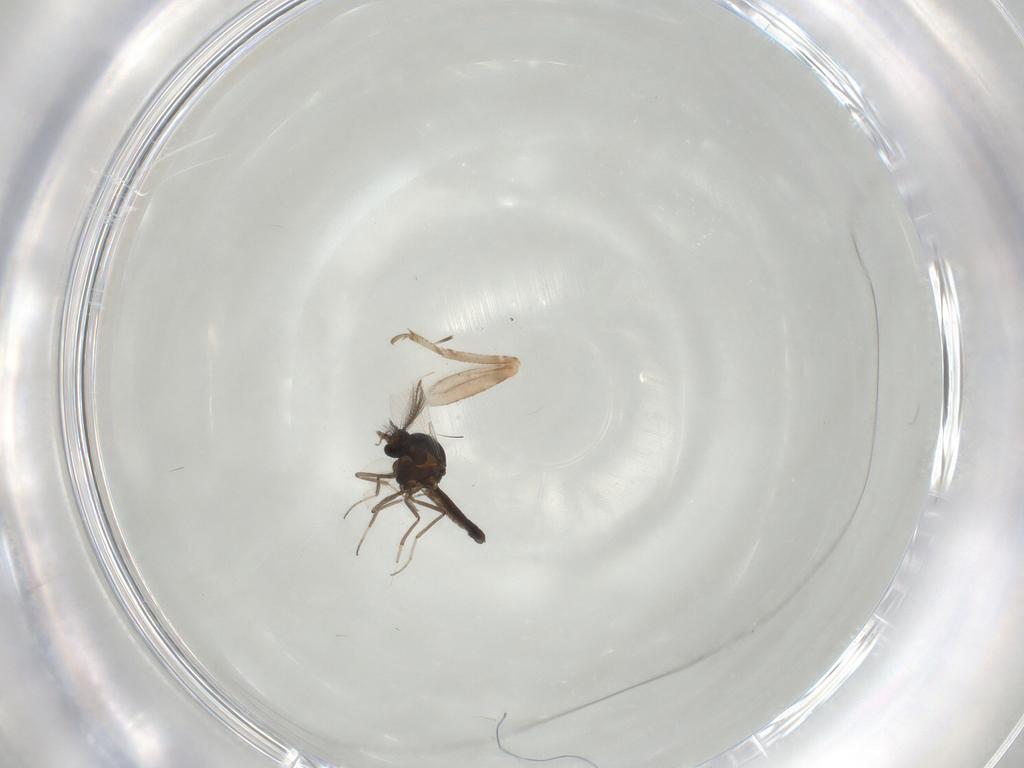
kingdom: Animalia
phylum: Arthropoda
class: Insecta
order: Diptera
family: Ceratopogonidae
